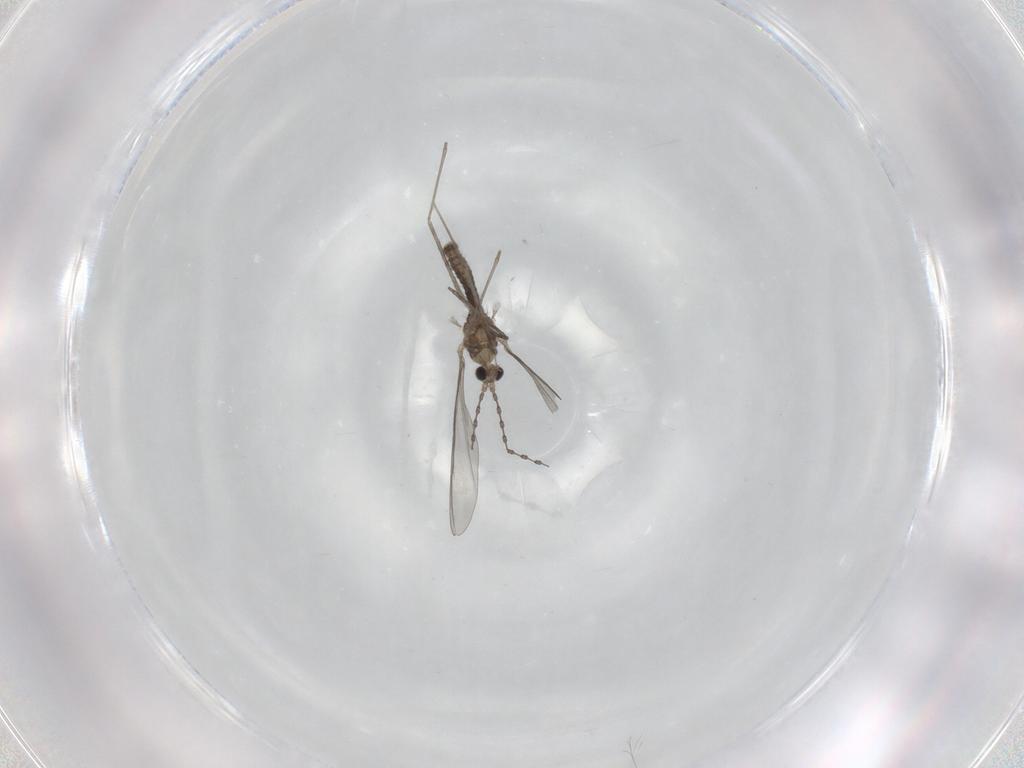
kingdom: Animalia
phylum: Arthropoda
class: Insecta
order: Diptera
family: Cecidomyiidae
